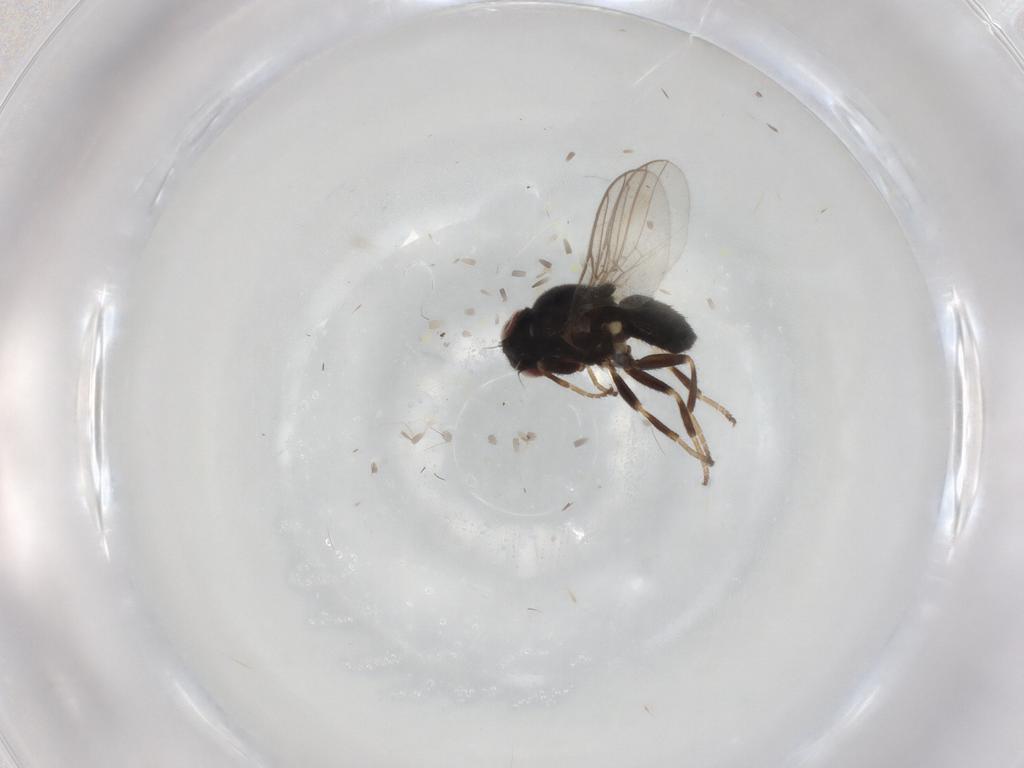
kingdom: Animalia
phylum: Arthropoda
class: Insecta
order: Diptera
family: Chloropidae
